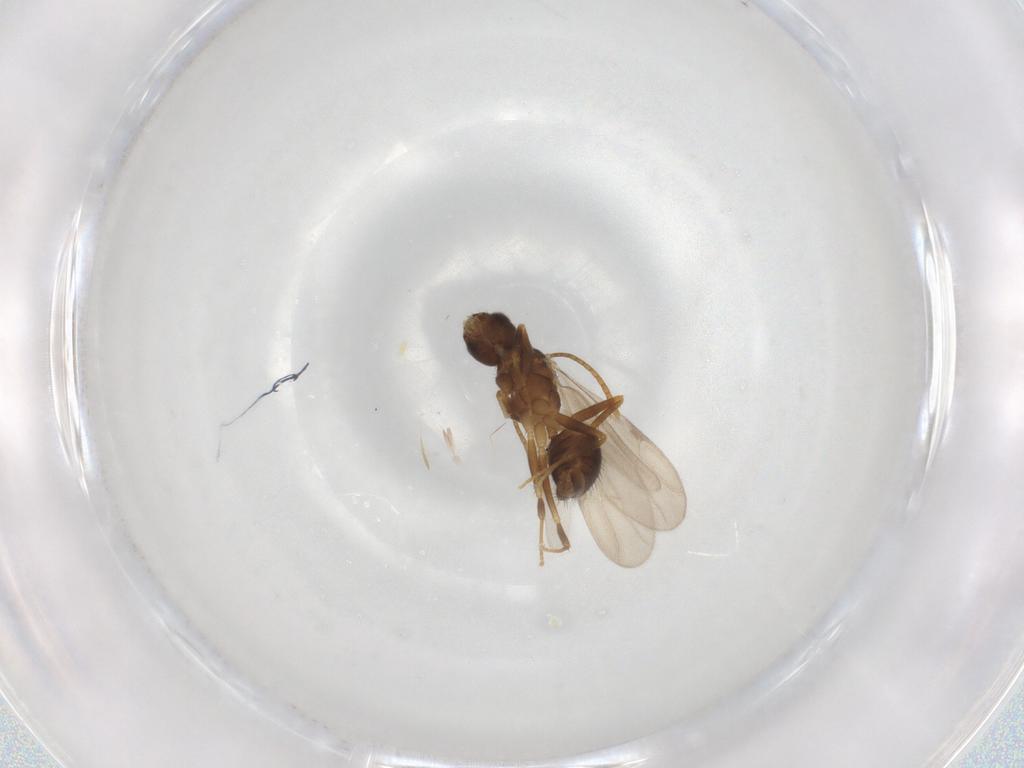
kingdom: Animalia
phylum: Arthropoda
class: Insecta
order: Hymenoptera
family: Formicidae
